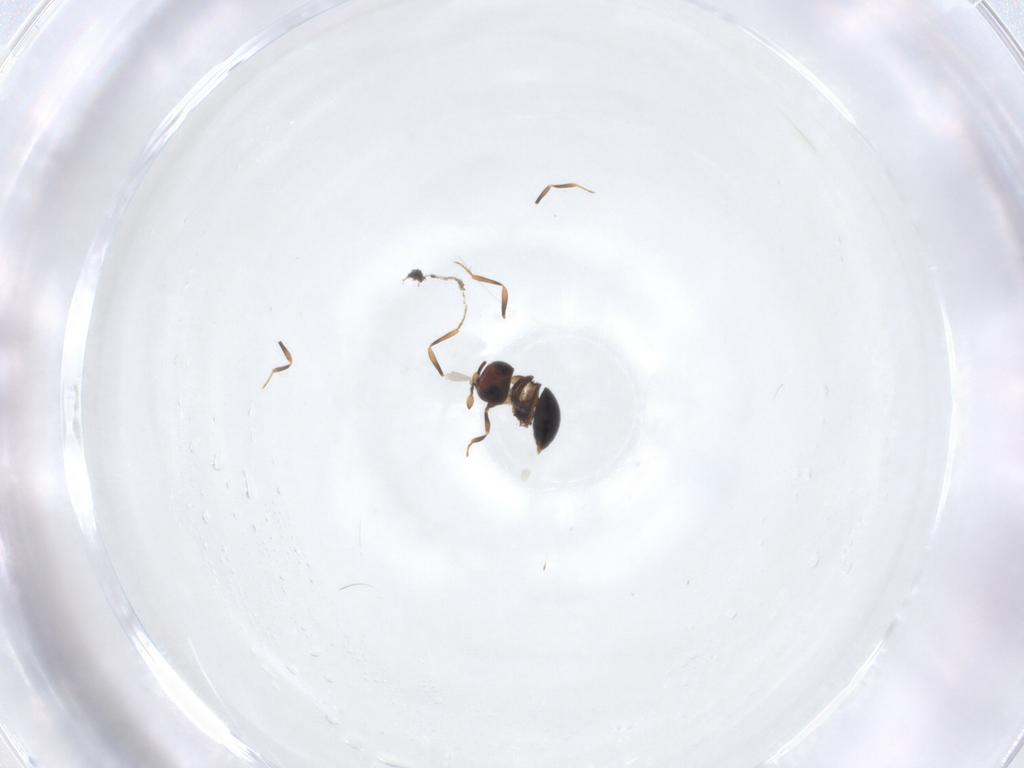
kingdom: Animalia
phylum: Arthropoda
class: Insecta
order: Hymenoptera
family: Scelionidae
